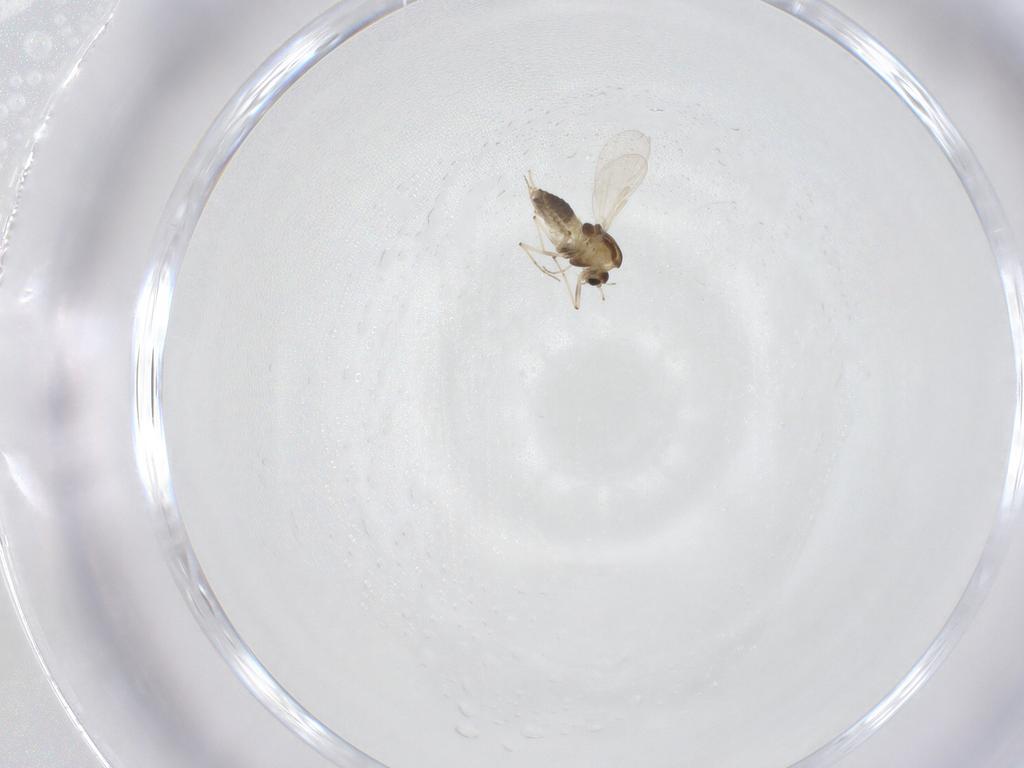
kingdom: Animalia
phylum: Arthropoda
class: Insecta
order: Diptera
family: Chironomidae
